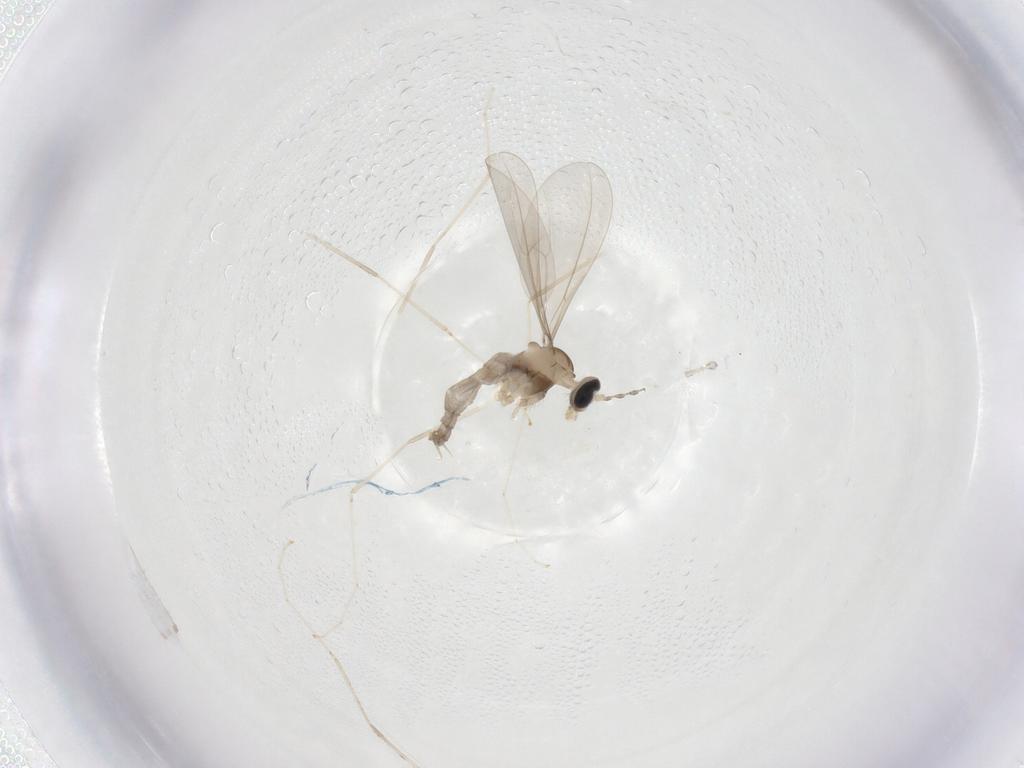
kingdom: Animalia
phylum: Arthropoda
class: Insecta
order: Diptera
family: Cecidomyiidae
